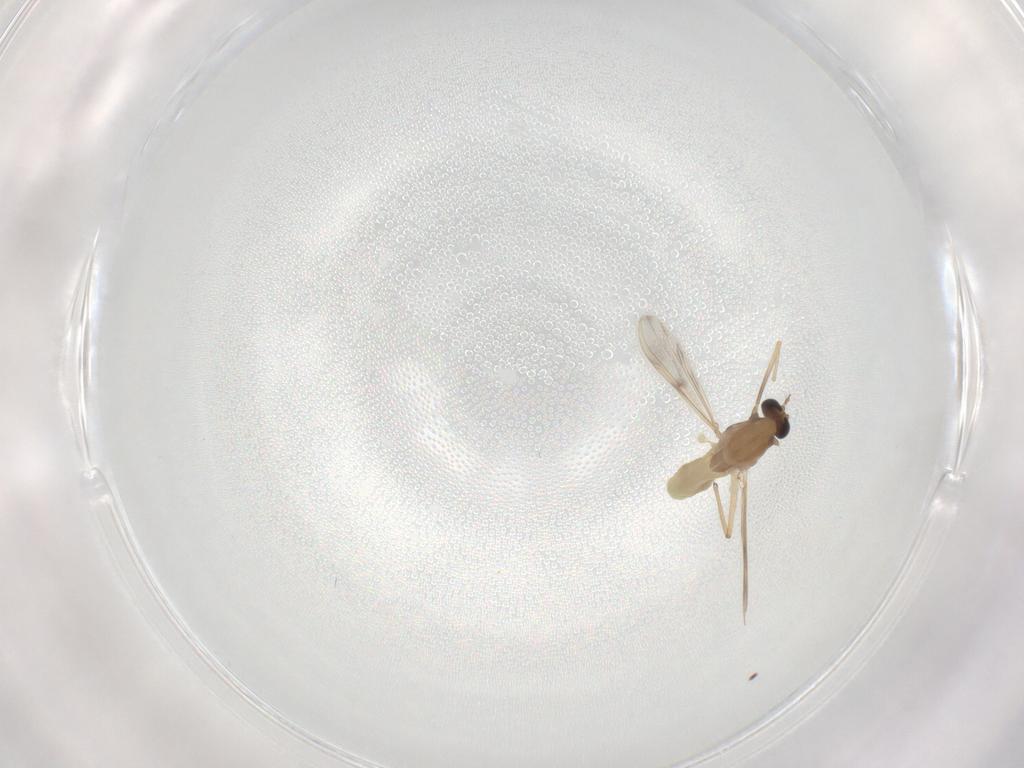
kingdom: Animalia
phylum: Arthropoda
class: Insecta
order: Diptera
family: Chironomidae
